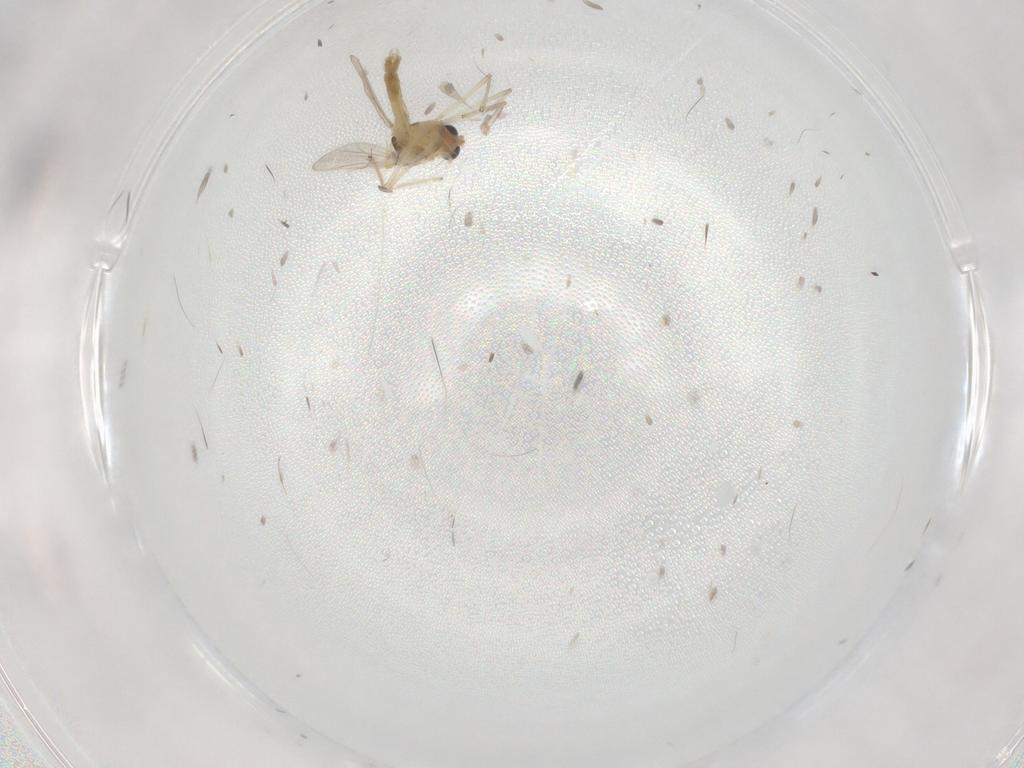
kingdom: Animalia
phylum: Arthropoda
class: Insecta
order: Diptera
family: Chironomidae
